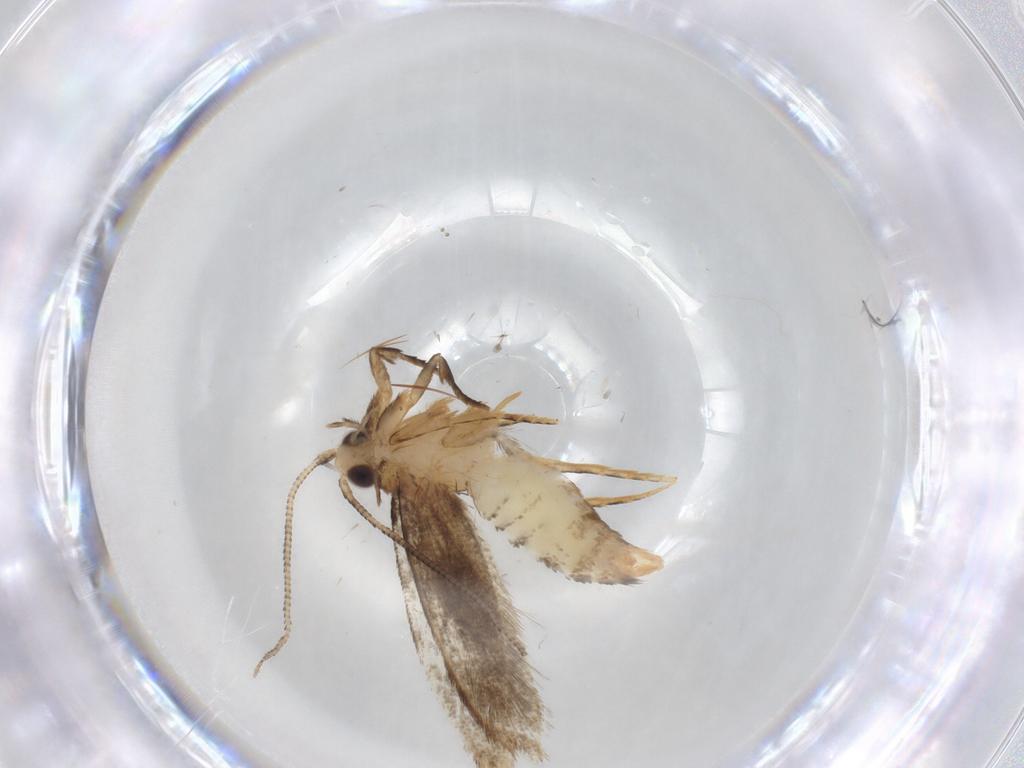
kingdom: Animalia
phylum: Arthropoda
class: Insecta
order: Lepidoptera
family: Tineidae
